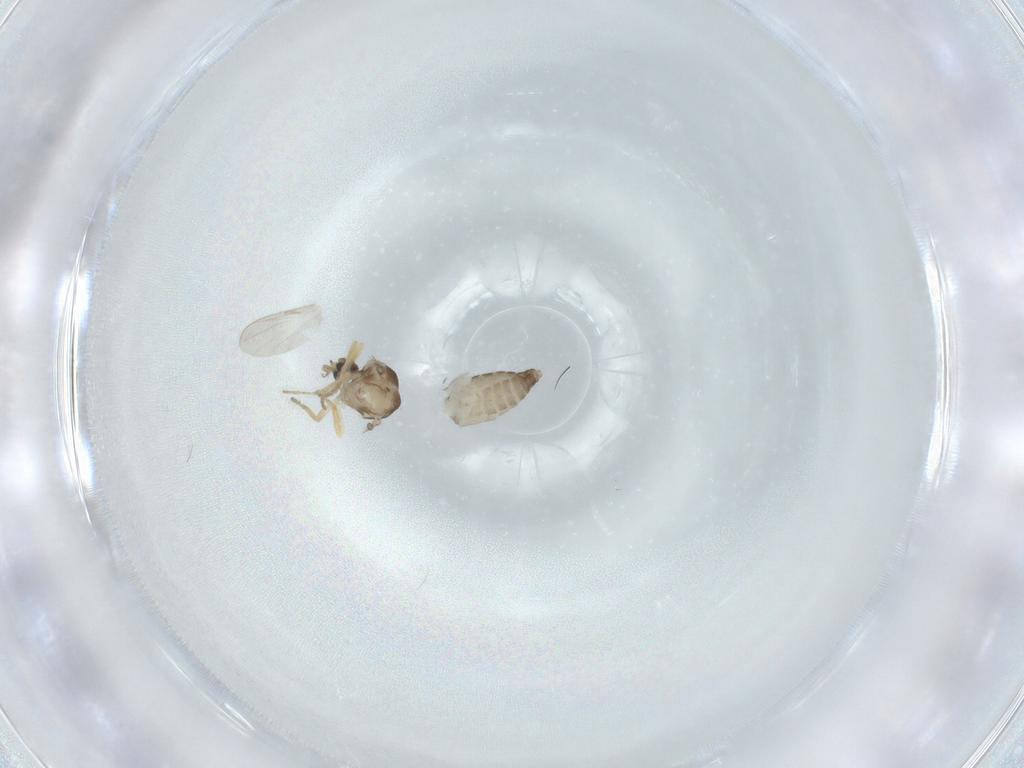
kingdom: Animalia
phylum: Arthropoda
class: Insecta
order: Diptera
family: Ceratopogonidae
